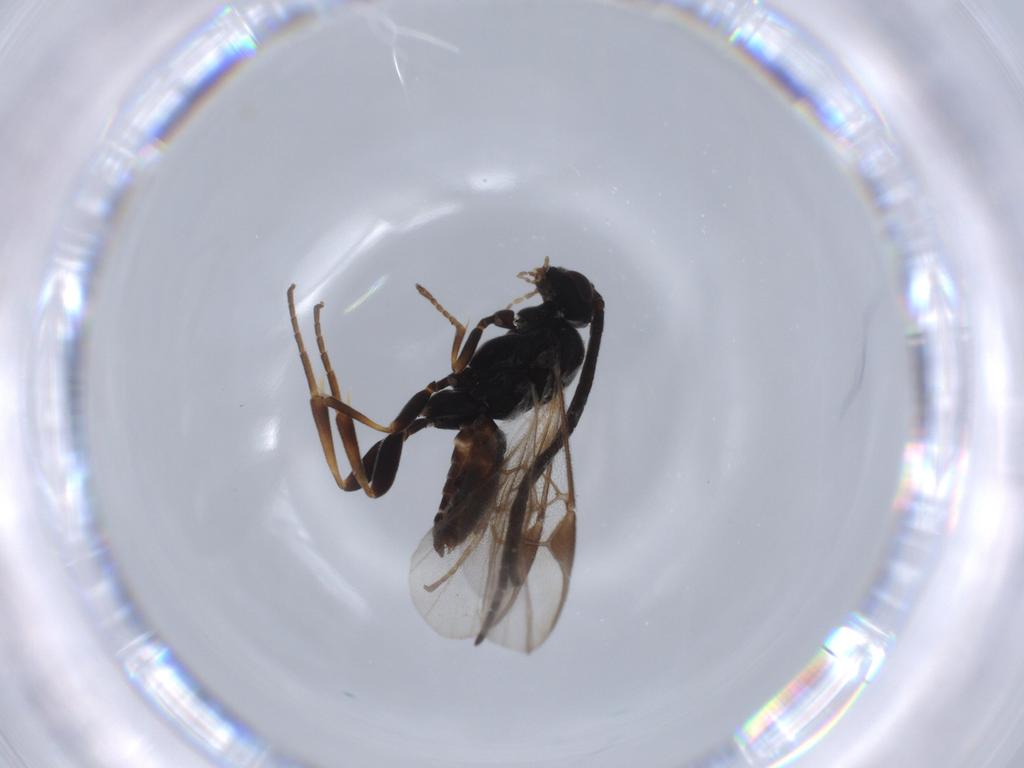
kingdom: Animalia
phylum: Arthropoda
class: Insecta
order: Hymenoptera
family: Braconidae
